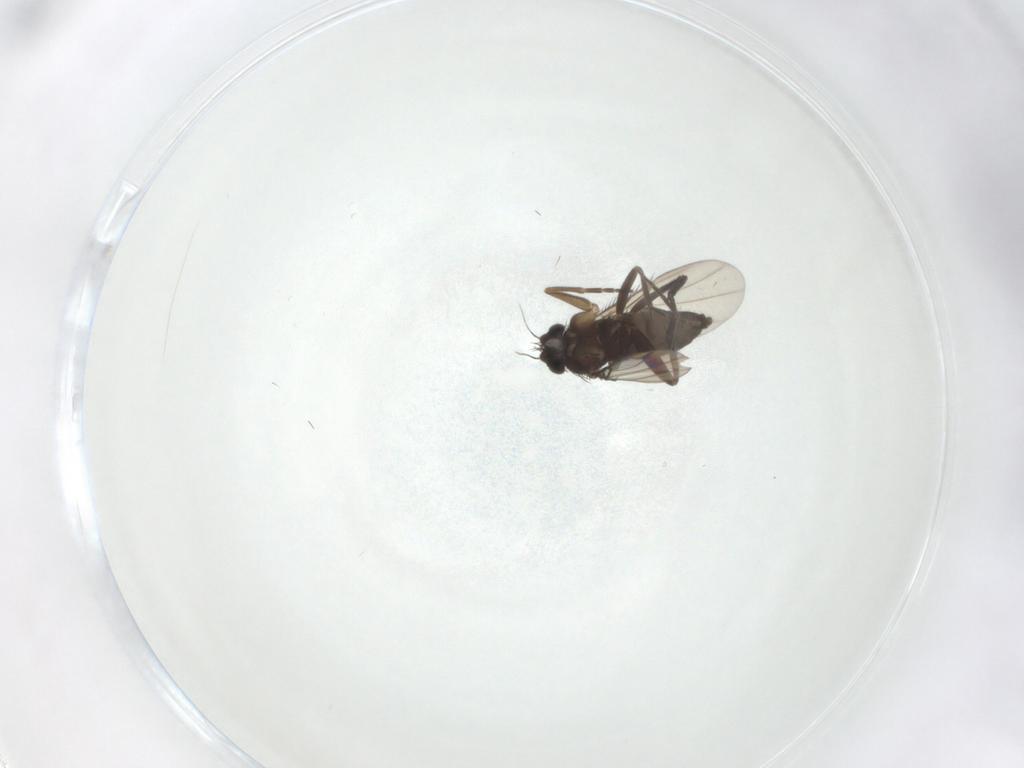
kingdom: Animalia
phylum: Arthropoda
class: Insecta
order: Diptera
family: Phoridae
